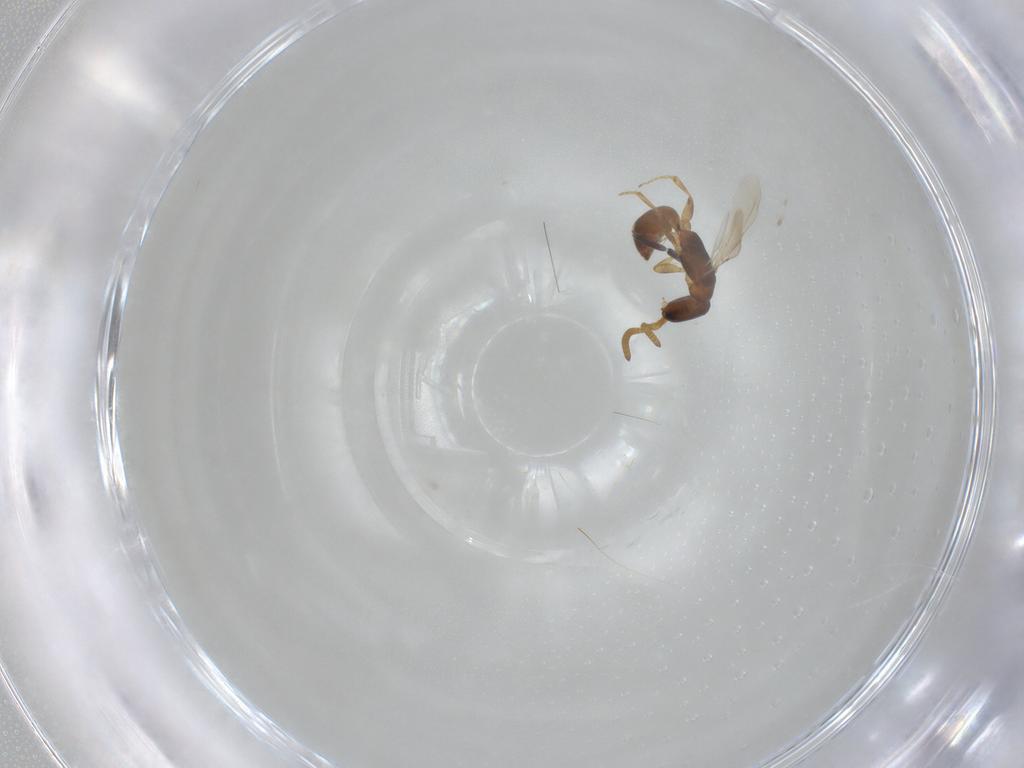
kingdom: Animalia
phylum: Arthropoda
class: Insecta
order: Hymenoptera
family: Bethylidae
